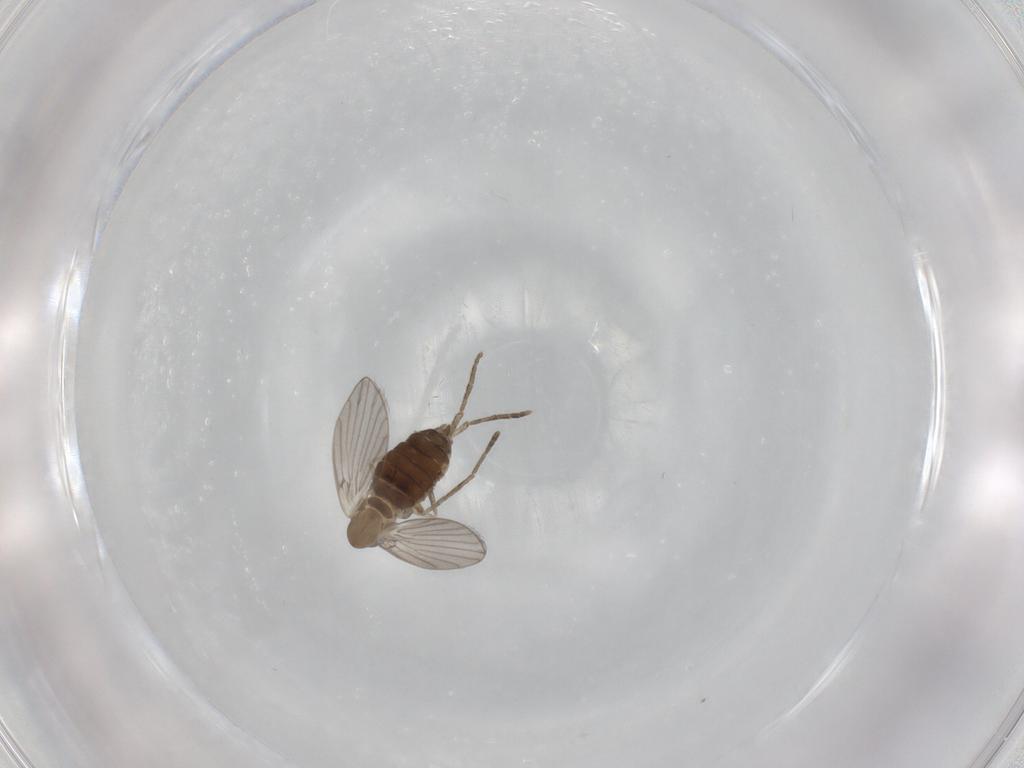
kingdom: Animalia
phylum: Arthropoda
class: Insecta
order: Diptera
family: Psychodidae
